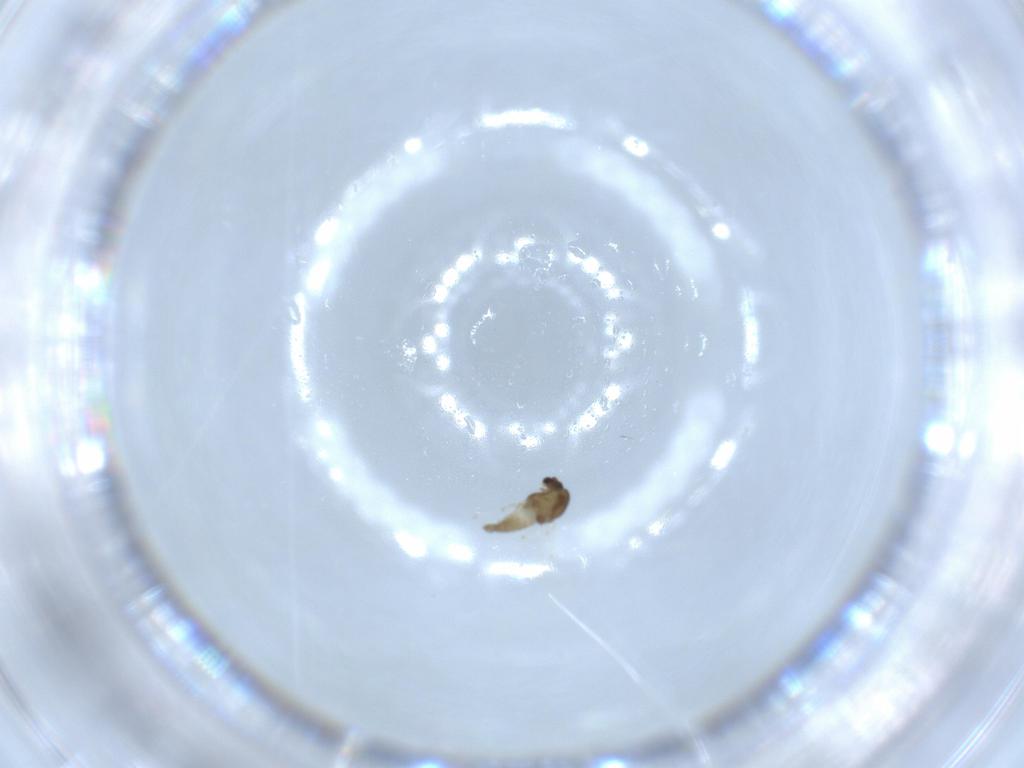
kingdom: Animalia
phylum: Arthropoda
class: Insecta
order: Diptera
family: Chironomidae
